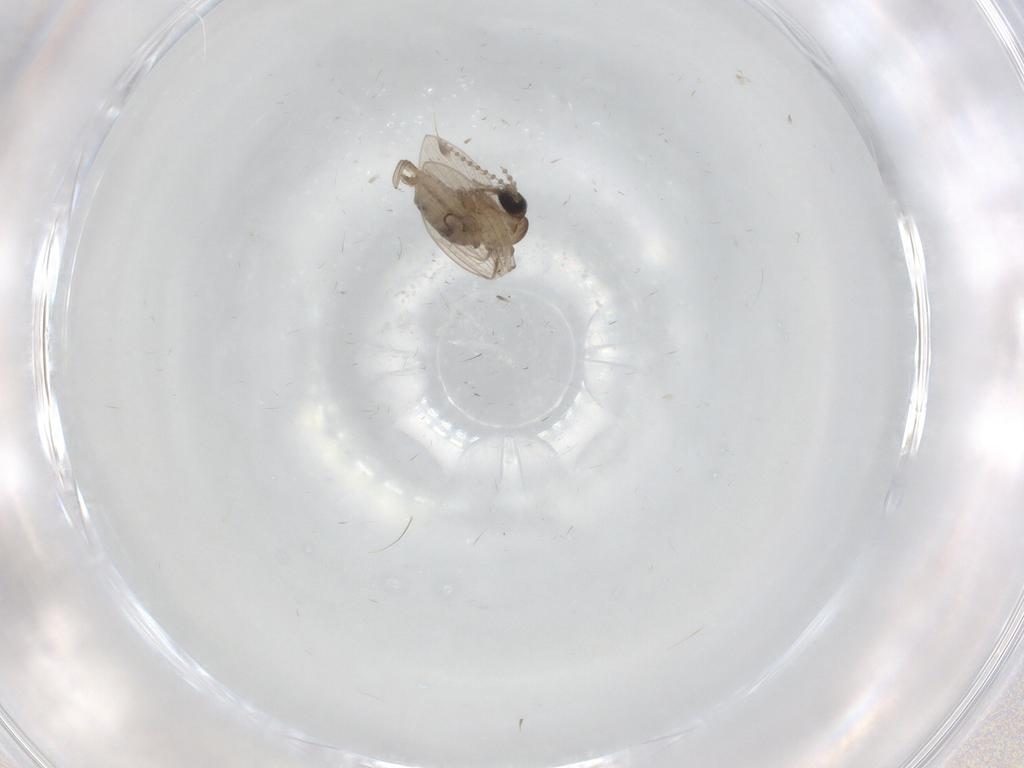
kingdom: Animalia
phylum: Arthropoda
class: Insecta
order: Diptera
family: Psychodidae
